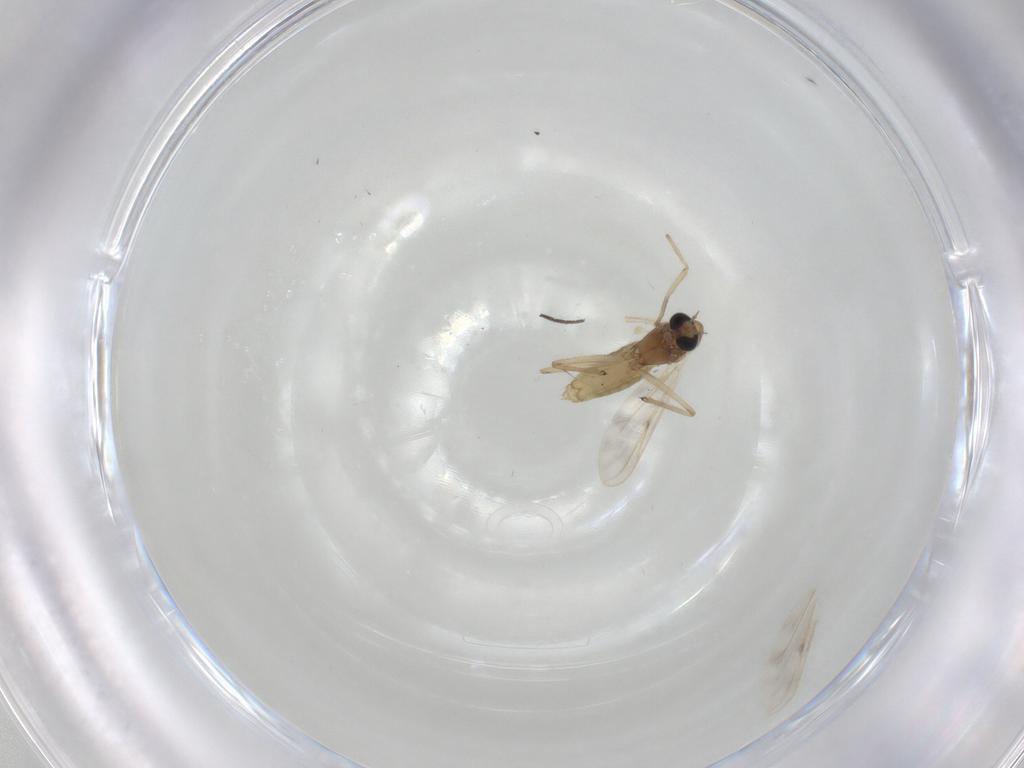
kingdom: Animalia
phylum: Arthropoda
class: Insecta
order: Diptera
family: Chironomidae
